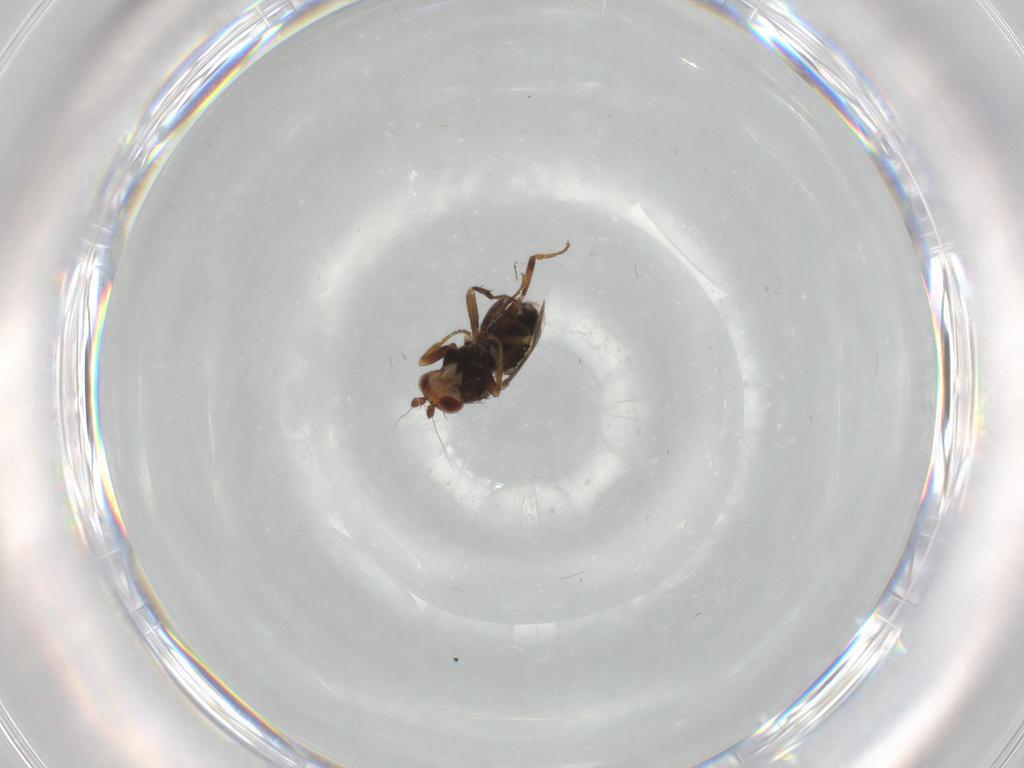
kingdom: Animalia
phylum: Arthropoda
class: Insecta
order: Diptera
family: Sphaeroceridae
